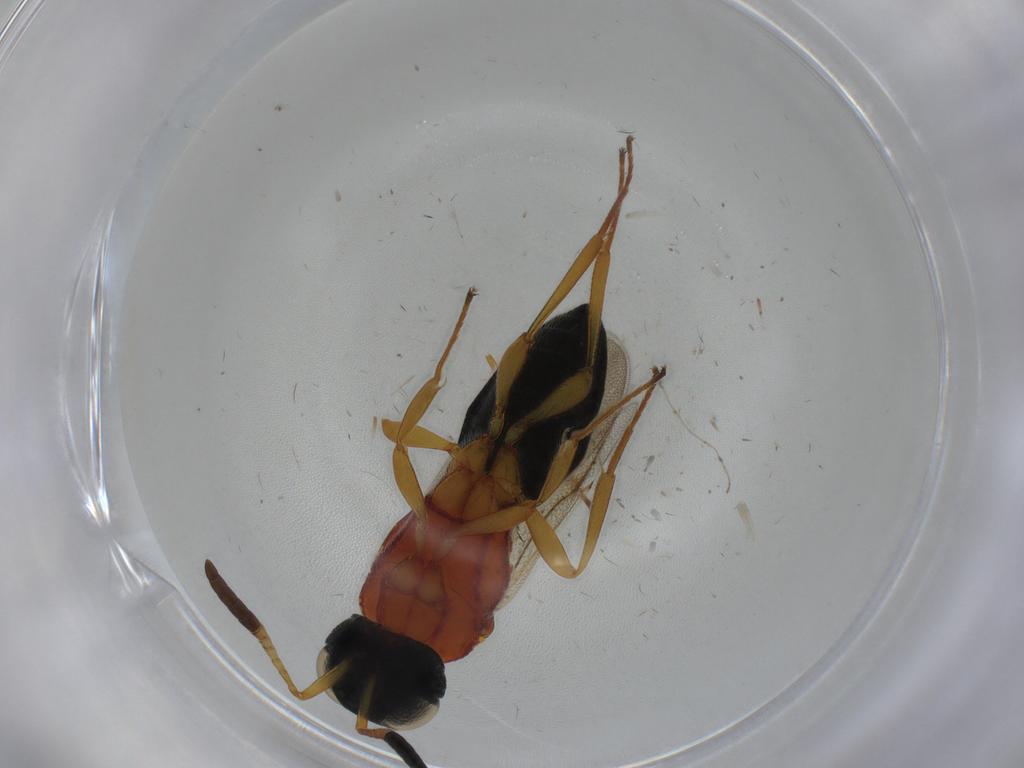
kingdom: Animalia
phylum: Arthropoda
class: Insecta
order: Hymenoptera
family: Scelionidae
